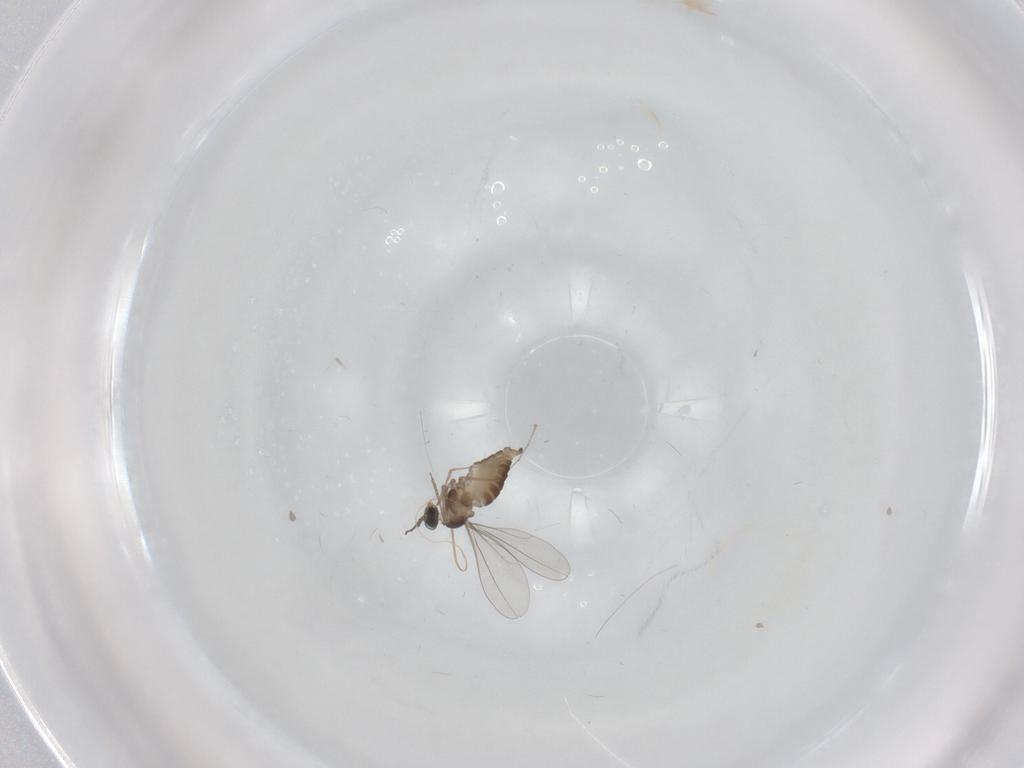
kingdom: Animalia
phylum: Arthropoda
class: Insecta
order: Diptera
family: Cecidomyiidae
